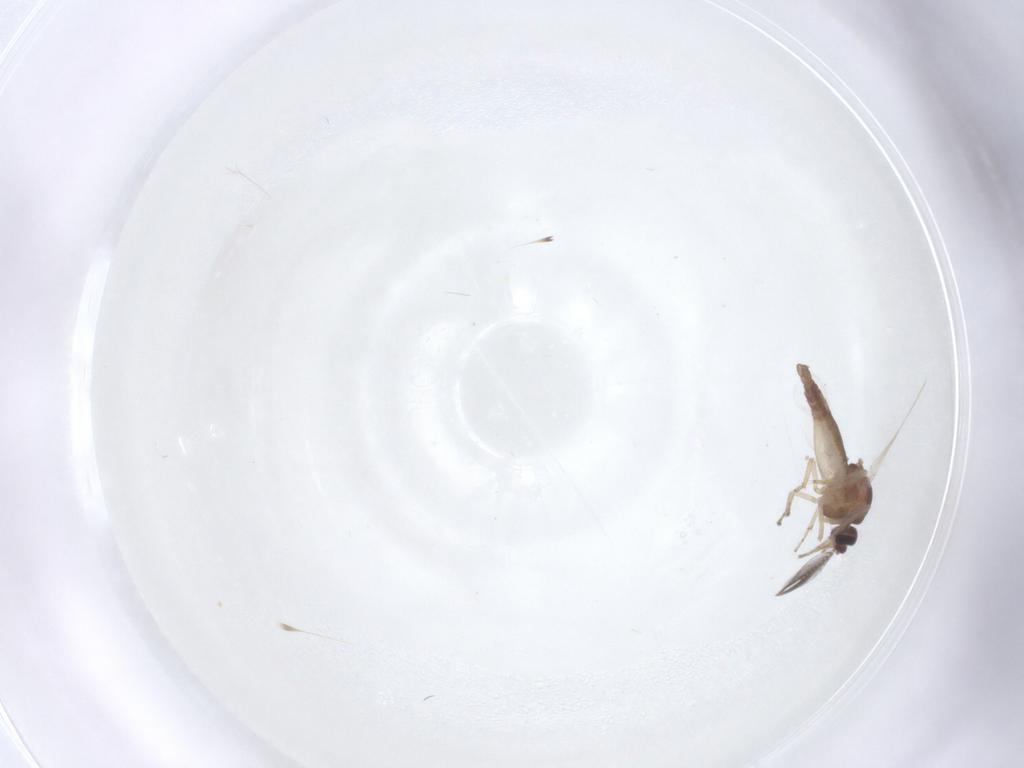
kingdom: Animalia
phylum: Arthropoda
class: Insecta
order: Diptera
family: Ceratopogonidae
